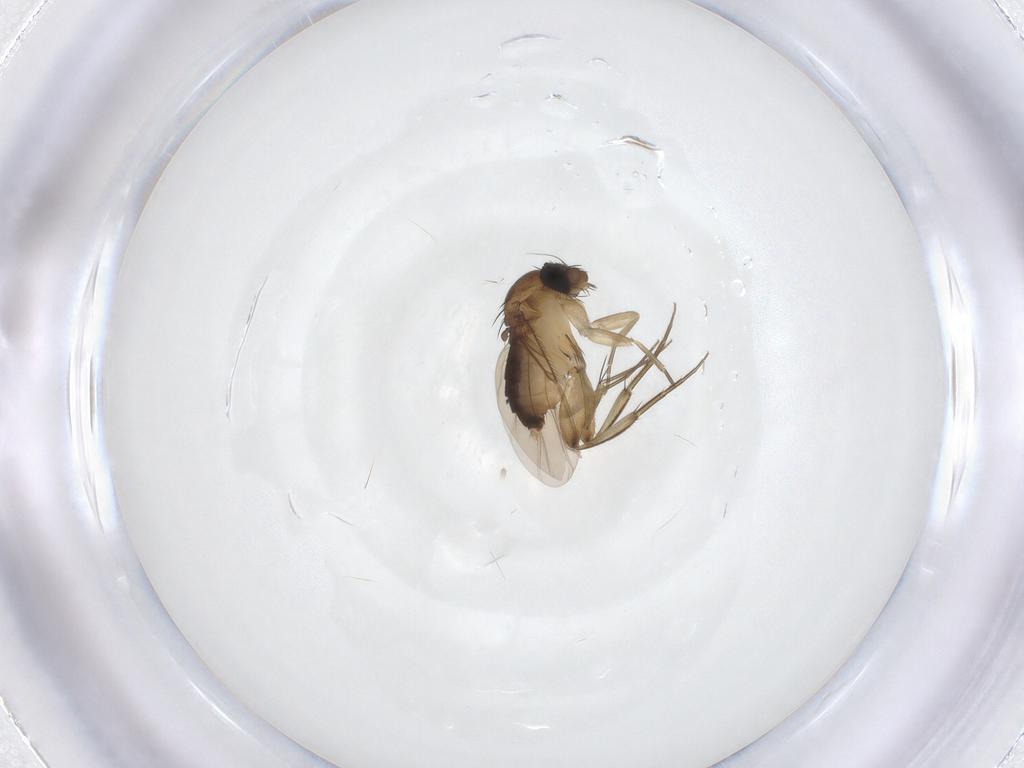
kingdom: Animalia
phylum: Arthropoda
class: Insecta
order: Diptera
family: Phoridae
